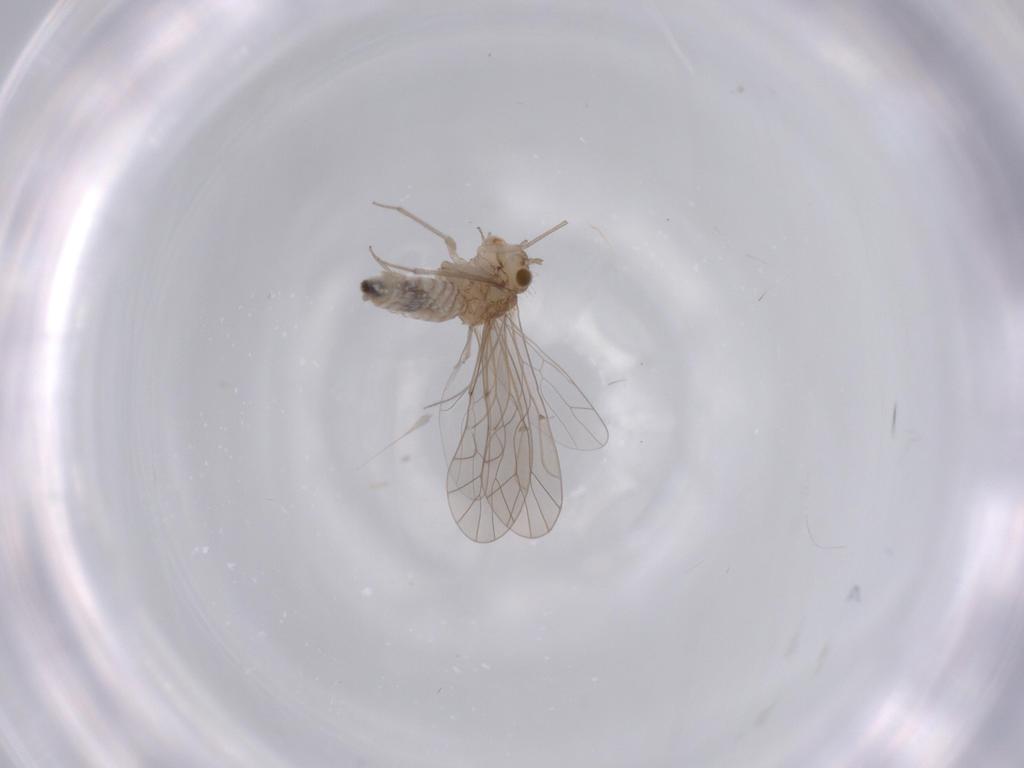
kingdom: Animalia
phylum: Arthropoda
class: Insecta
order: Psocodea
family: Lachesillidae
